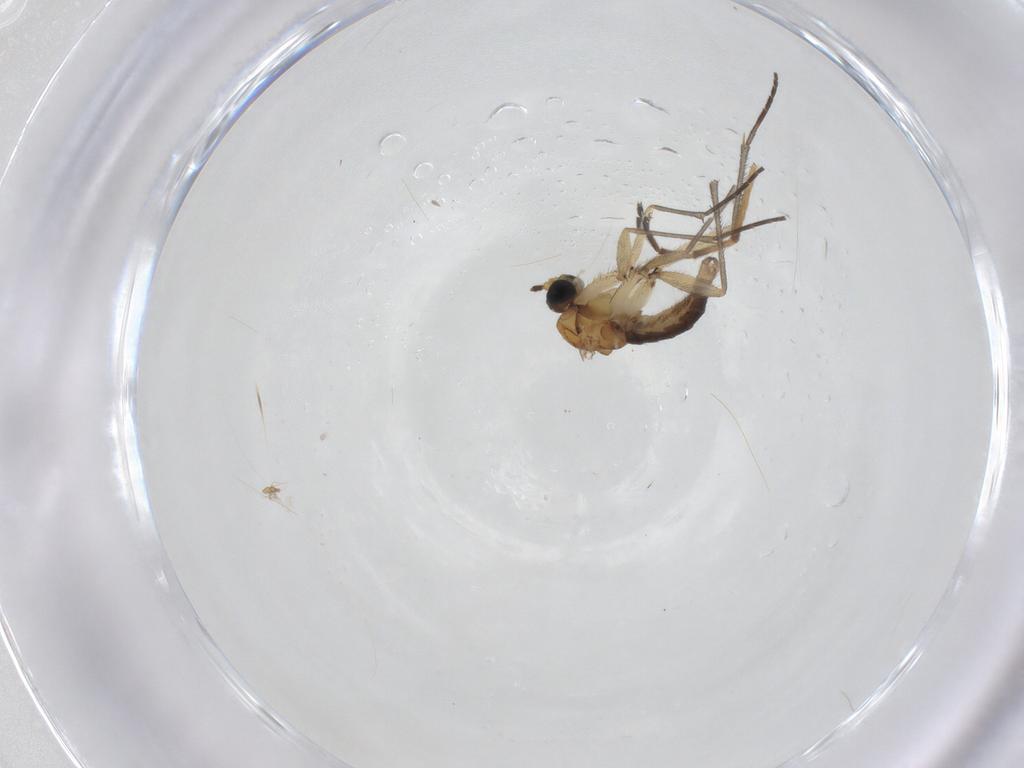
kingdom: Animalia
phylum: Arthropoda
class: Insecta
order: Diptera
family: Sciaridae
